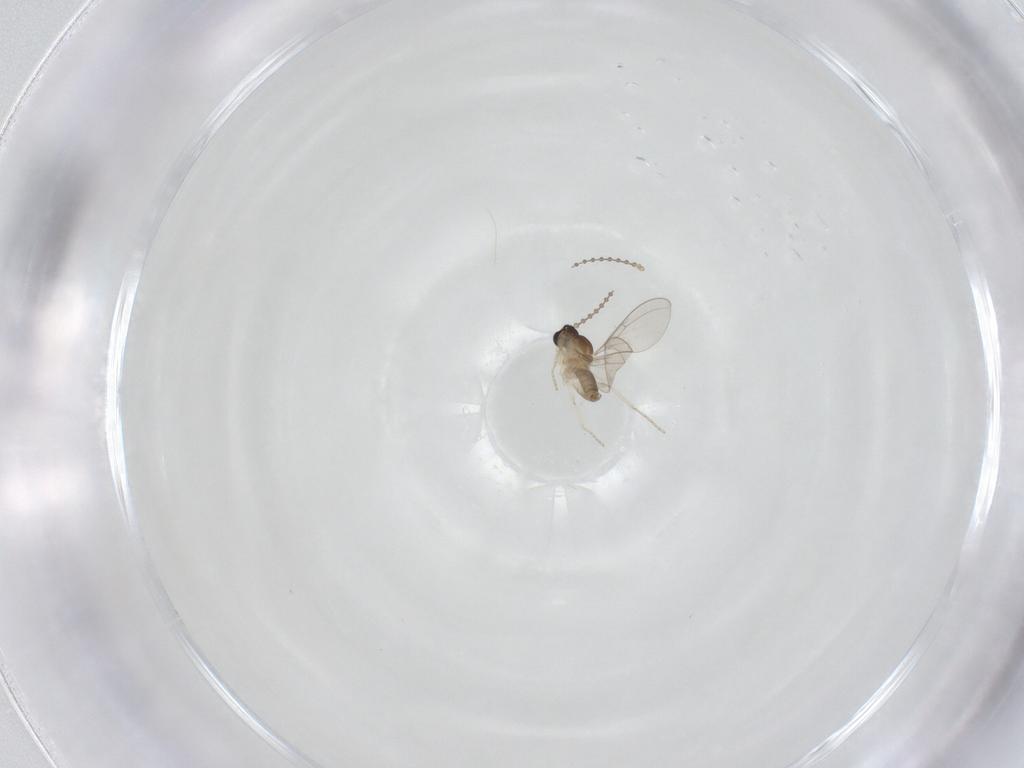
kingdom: Animalia
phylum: Arthropoda
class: Insecta
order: Diptera
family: Cecidomyiidae
